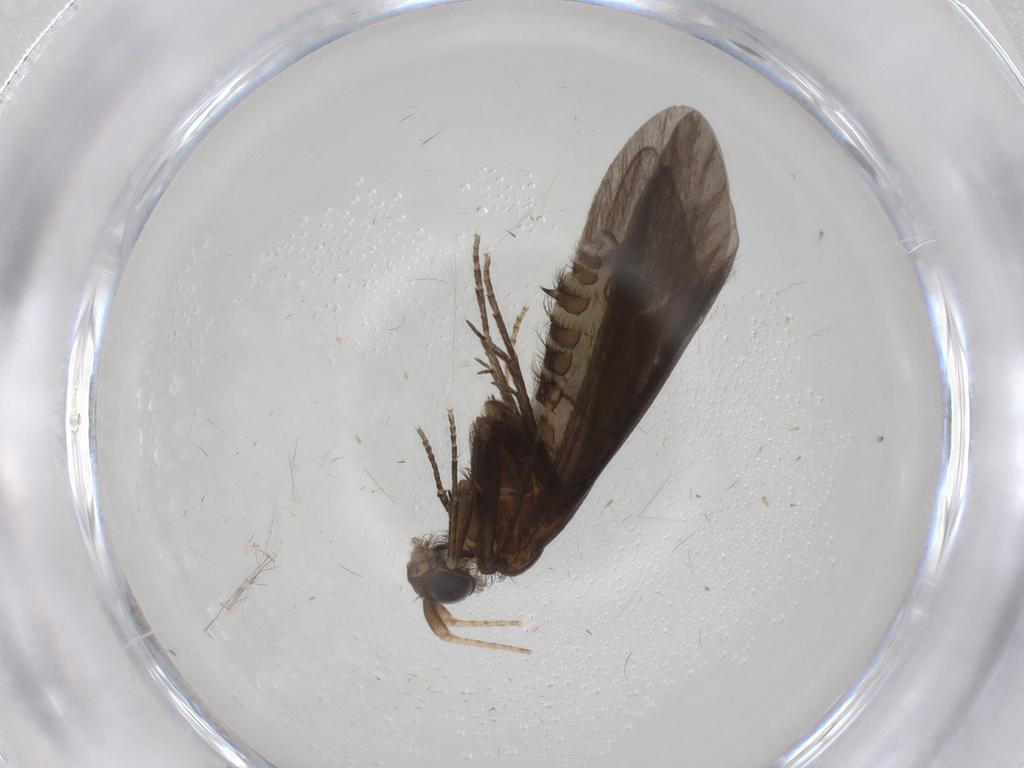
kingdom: Animalia
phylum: Arthropoda
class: Insecta
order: Trichoptera
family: Helicopsychidae
